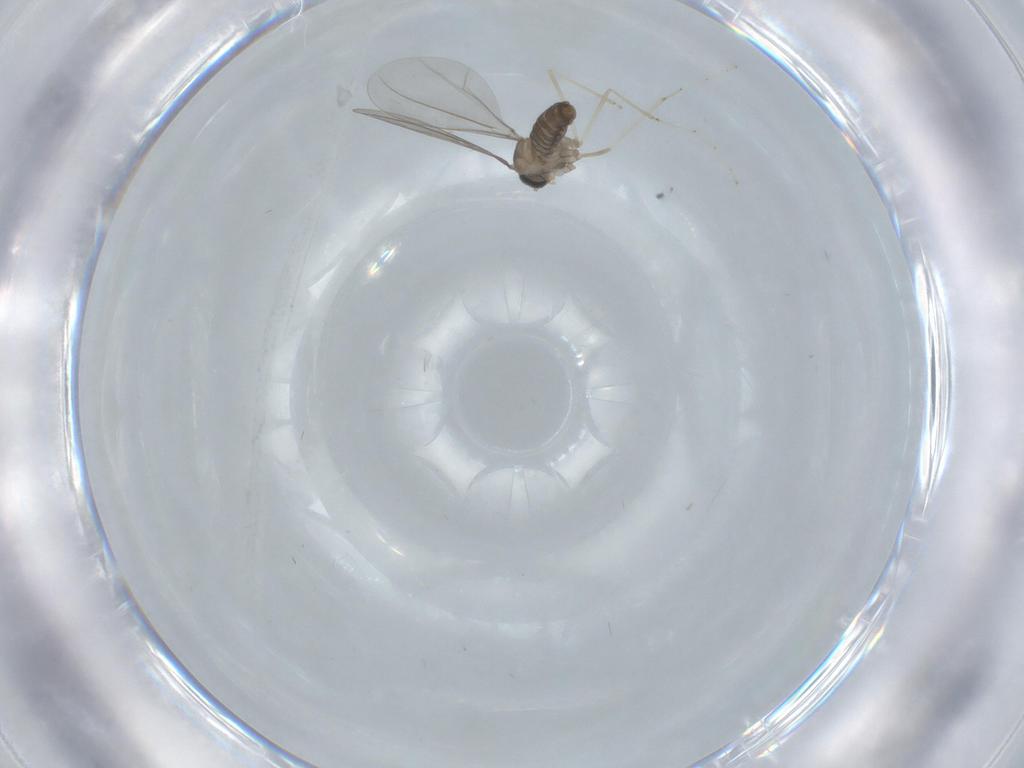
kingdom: Animalia
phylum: Arthropoda
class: Insecta
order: Diptera
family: Cecidomyiidae
